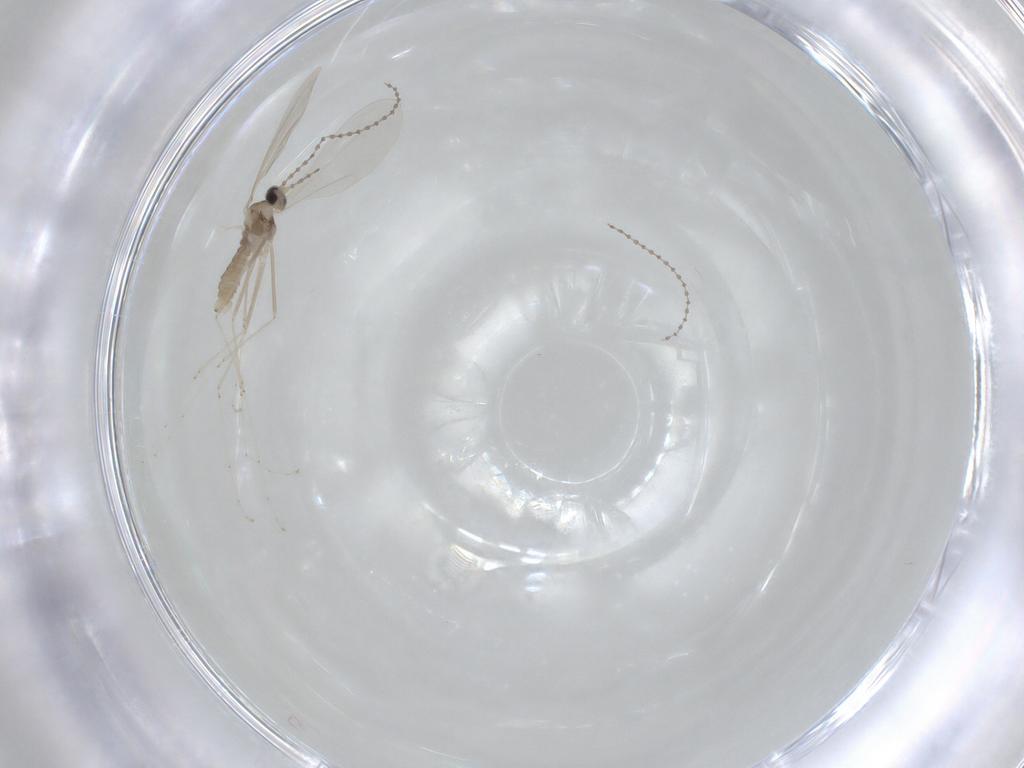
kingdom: Animalia
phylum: Arthropoda
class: Insecta
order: Diptera
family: Cecidomyiidae
